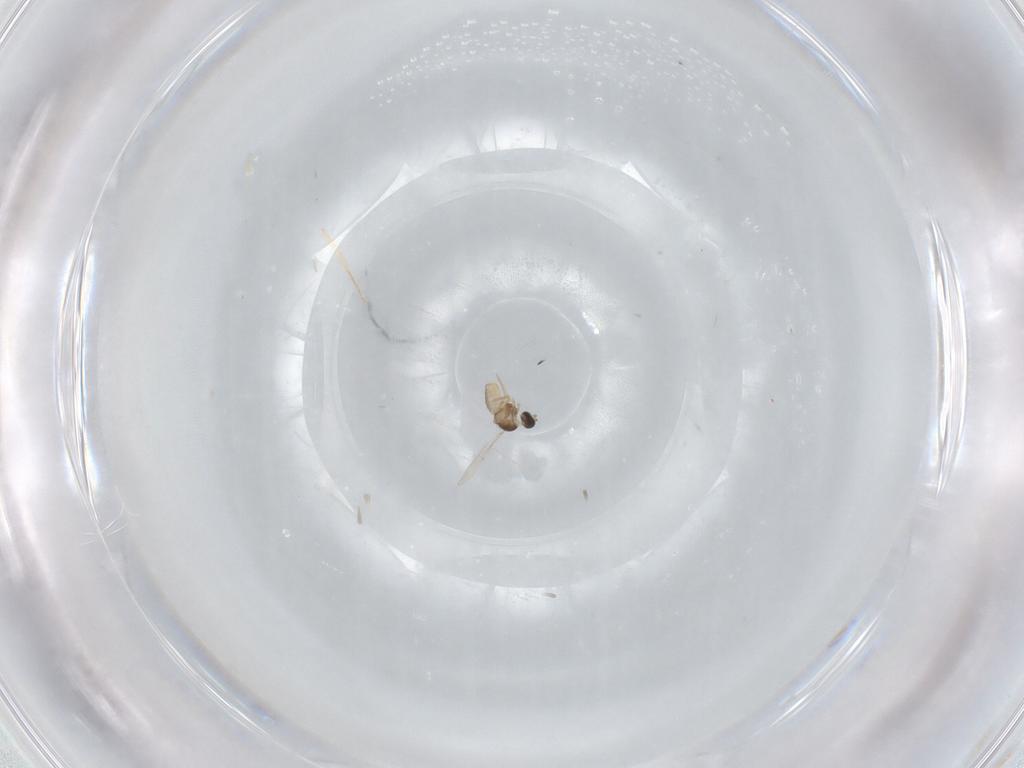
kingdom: Animalia
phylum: Arthropoda
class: Insecta
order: Diptera
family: Cecidomyiidae
